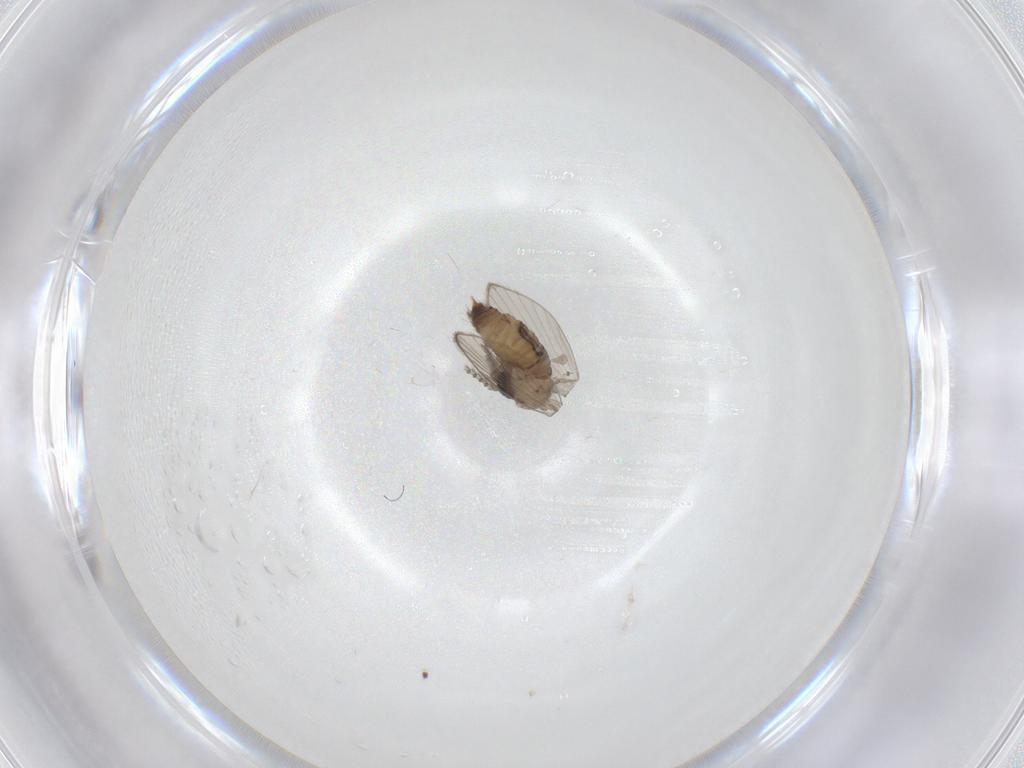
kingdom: Animalia
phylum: Arthropoda
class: Insecta
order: Diptera
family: Psychodidae
